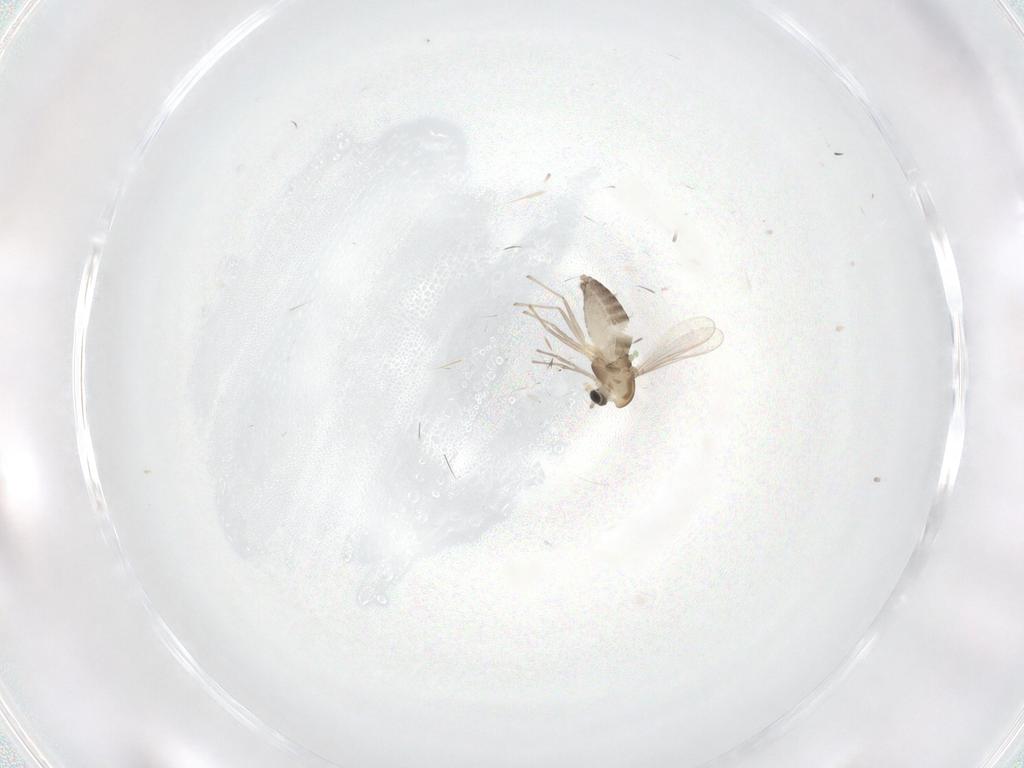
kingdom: Animalia
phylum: Arthropoda
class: Insecta
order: Diptera
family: Chironomidae
